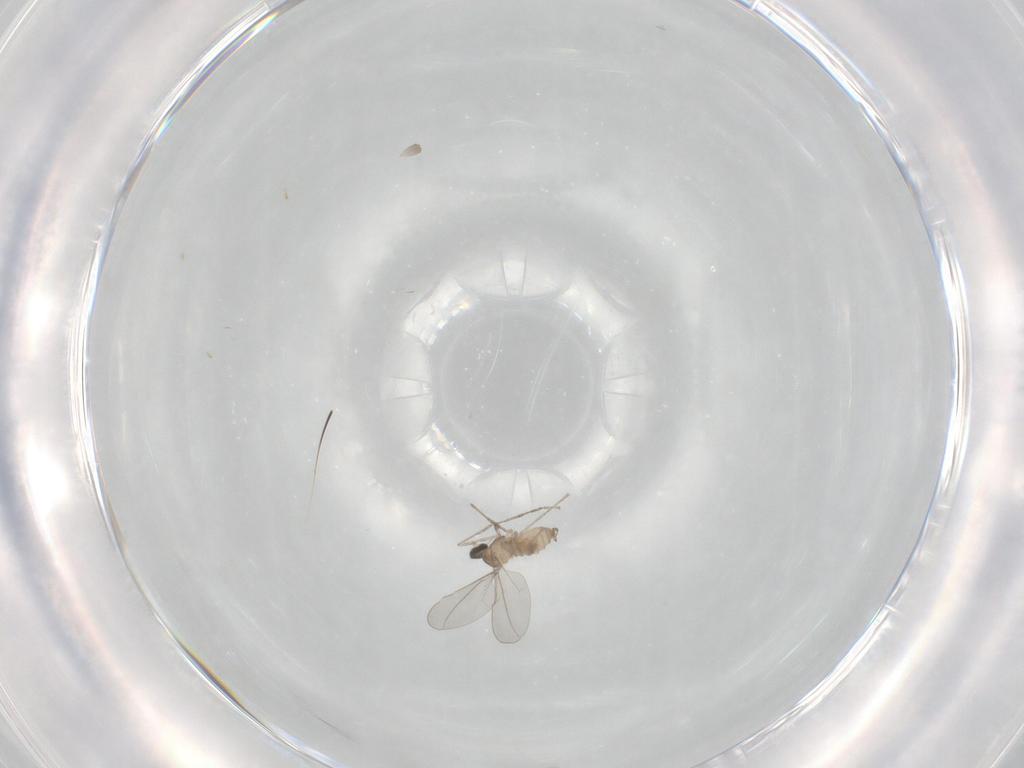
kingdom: Animalia
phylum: Arthropoda
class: Insecta
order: Diptera
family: Cecidomyiidae
